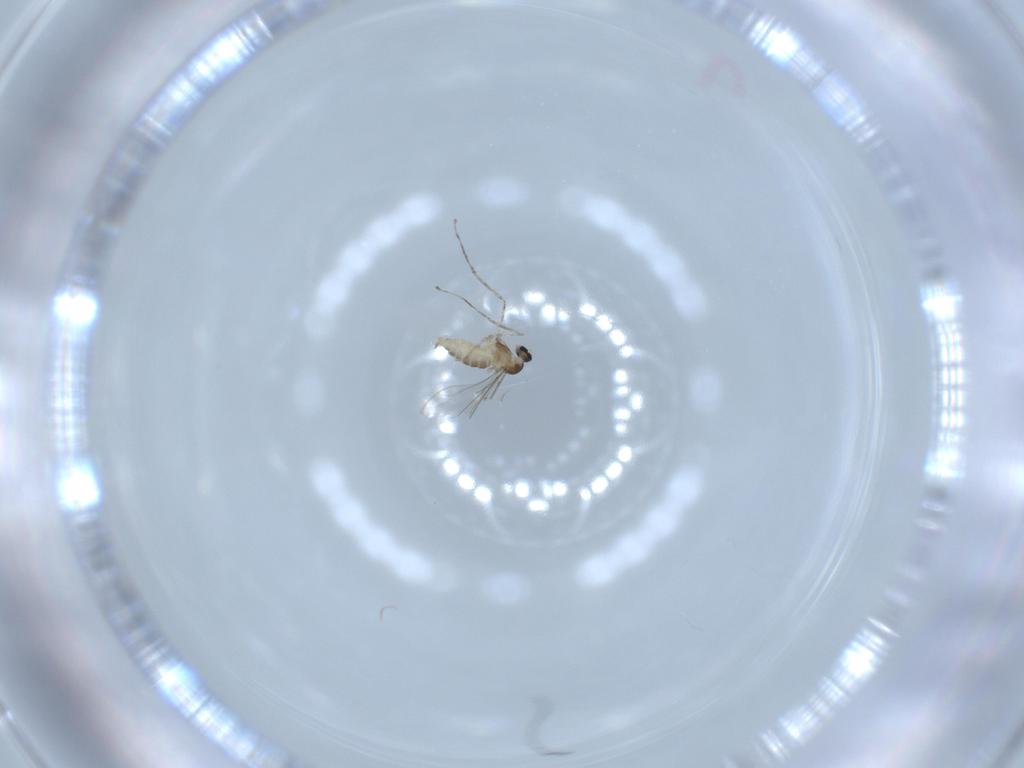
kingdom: Animalia
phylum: Arthropoda
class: Insecta
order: Diptera
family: Cecidomyiidae
